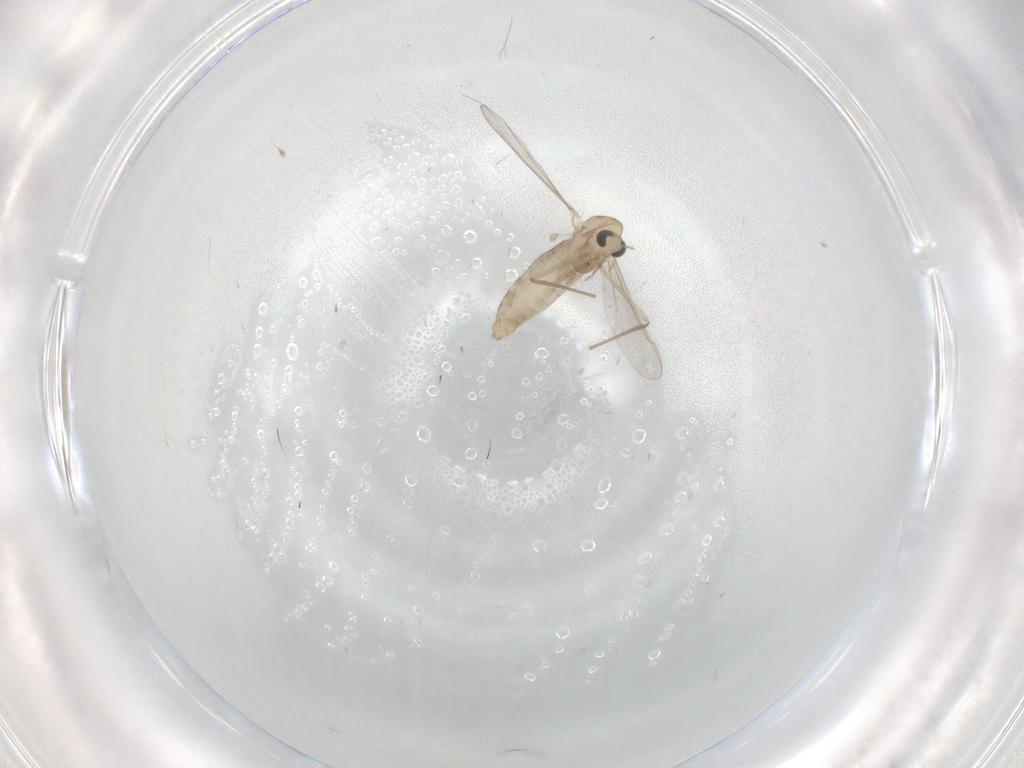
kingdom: Animalia
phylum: Arthropoda
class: Insecta
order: Diptera
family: Chironomidae
